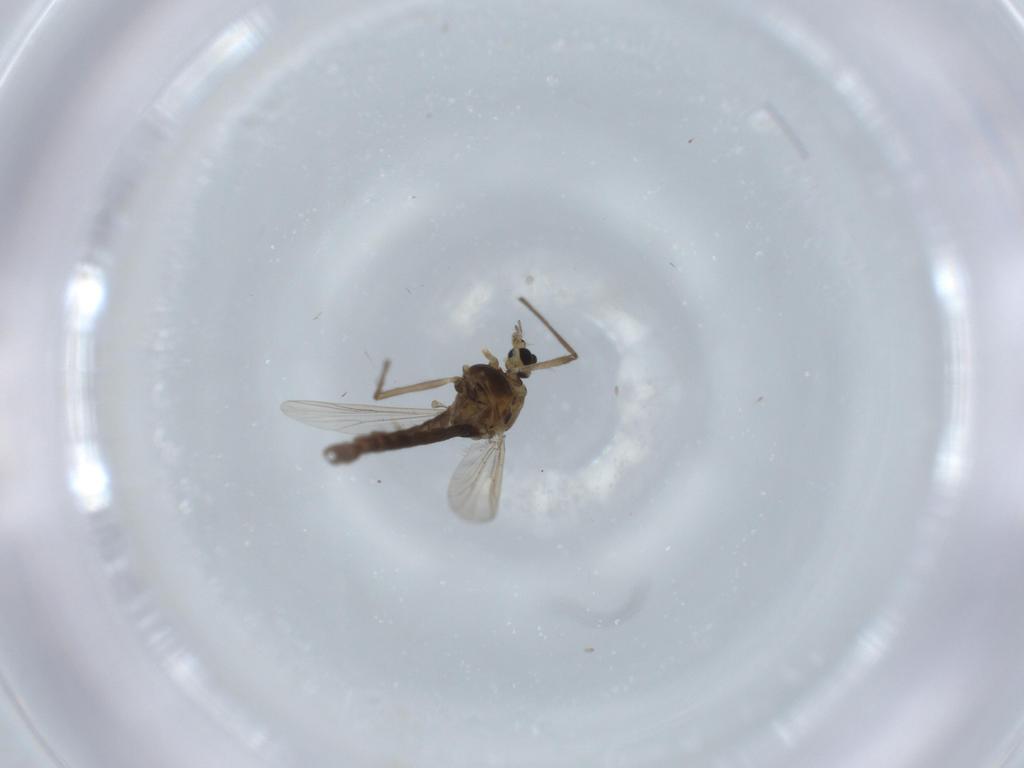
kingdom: Animalia
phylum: Arthropoda
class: Insecta
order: Diptera
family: Chironomidae
